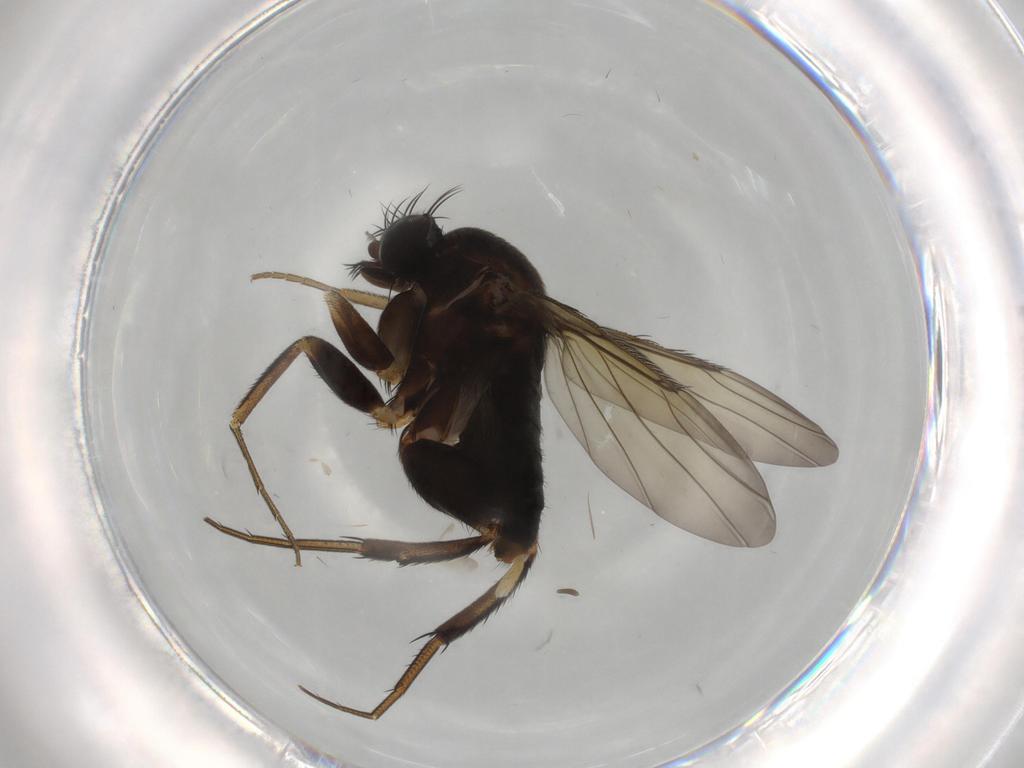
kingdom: Animalia
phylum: Arthropoda
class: Insecta
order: Diptera
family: Phoridae
